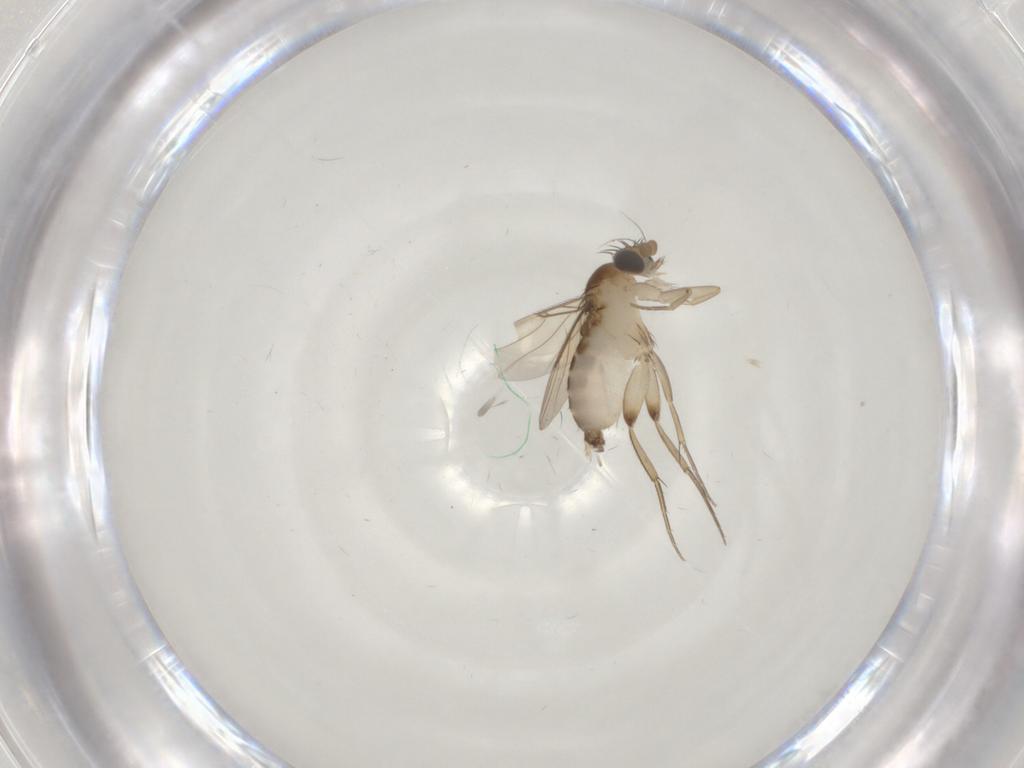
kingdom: Animalia
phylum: Arthropoda
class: Insecta
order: Diptera
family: Phoridae
